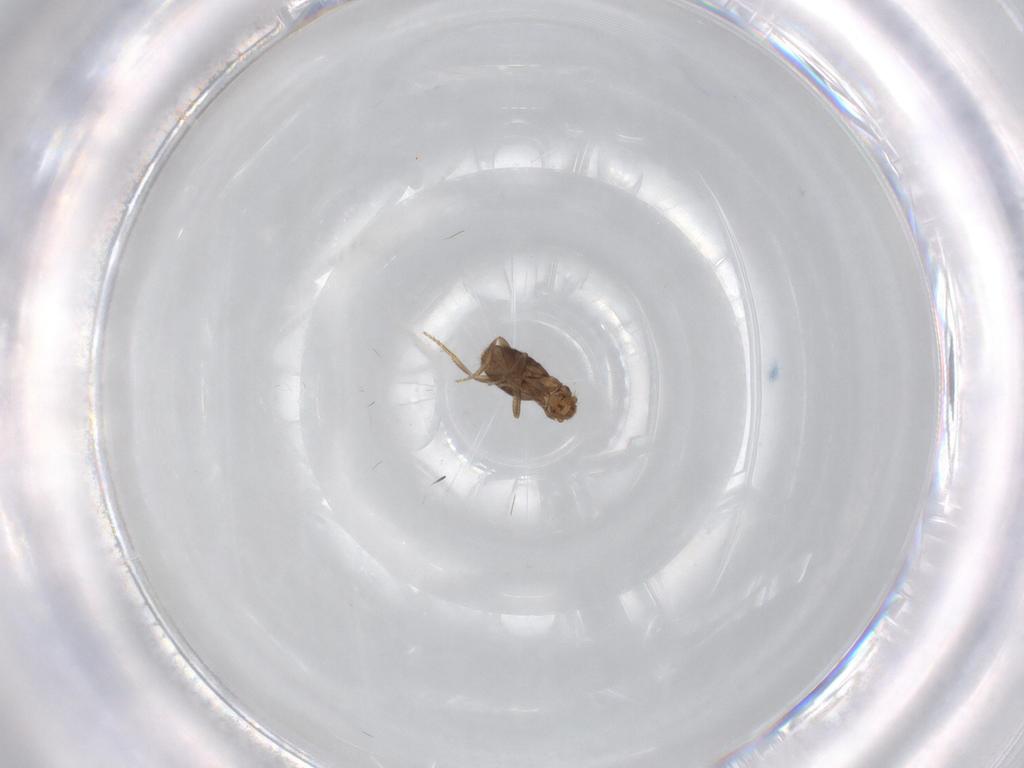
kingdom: Animalia
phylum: Arthropoda
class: Insecta
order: Diptera
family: Phoridae
